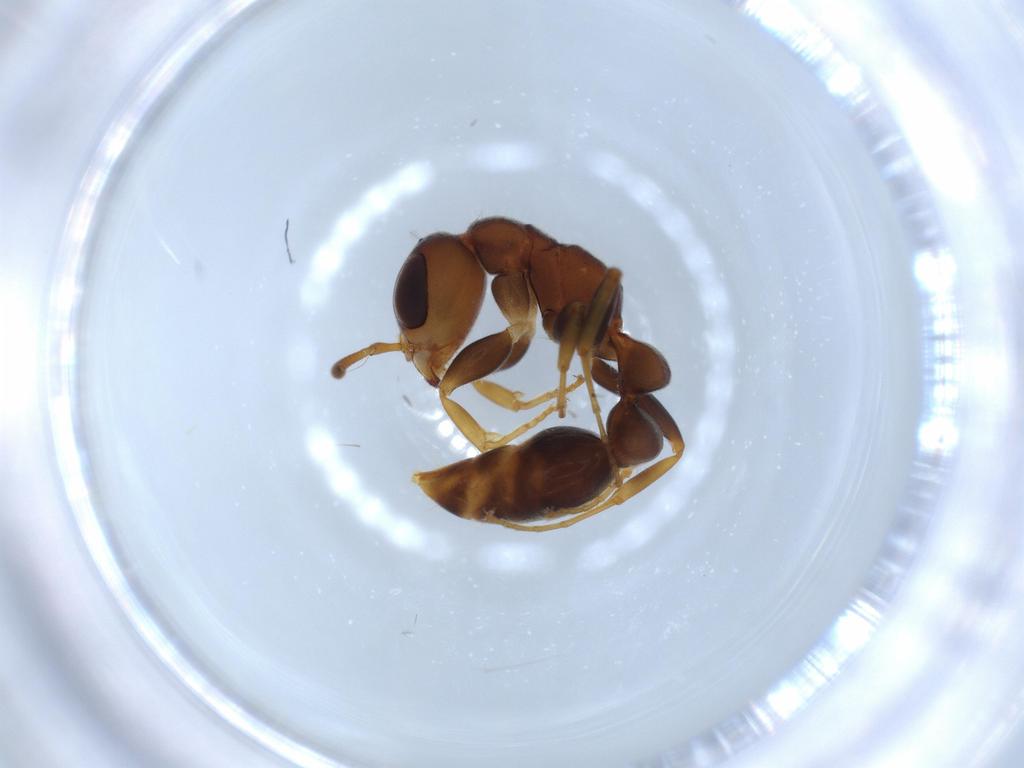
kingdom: Animalia
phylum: Arthropoda
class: Insecta
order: Hymenoptera
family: Formicidae
